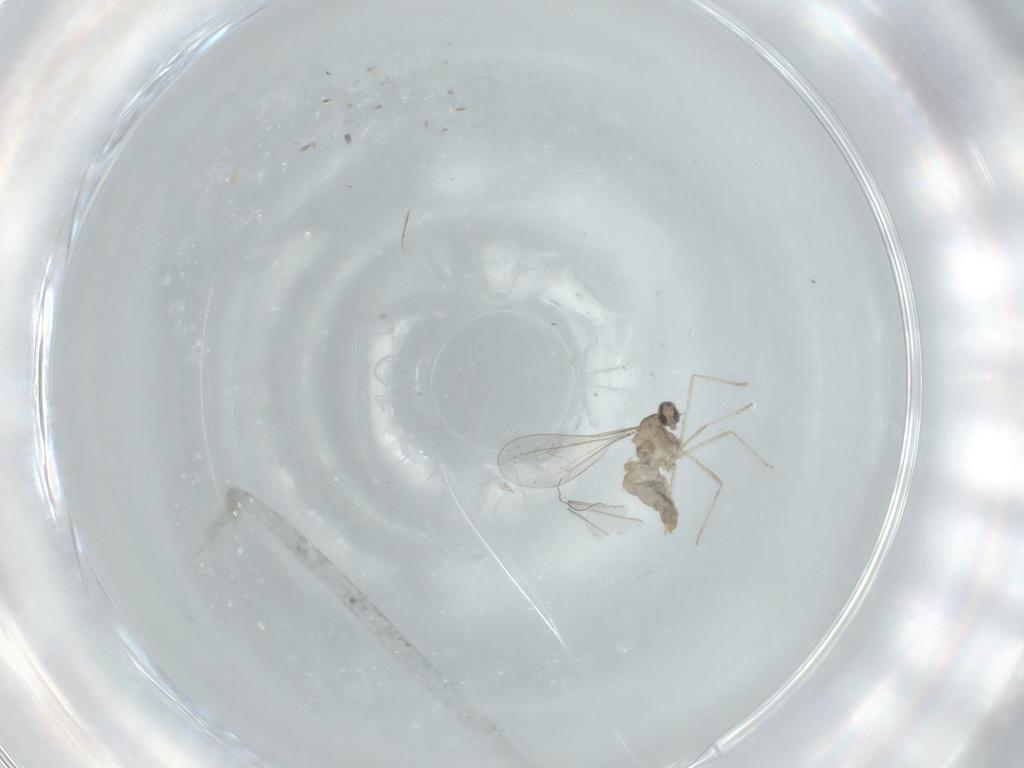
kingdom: Animalia
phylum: Arthropoda
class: Insecta
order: Diptera
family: Cecidomyiidae
